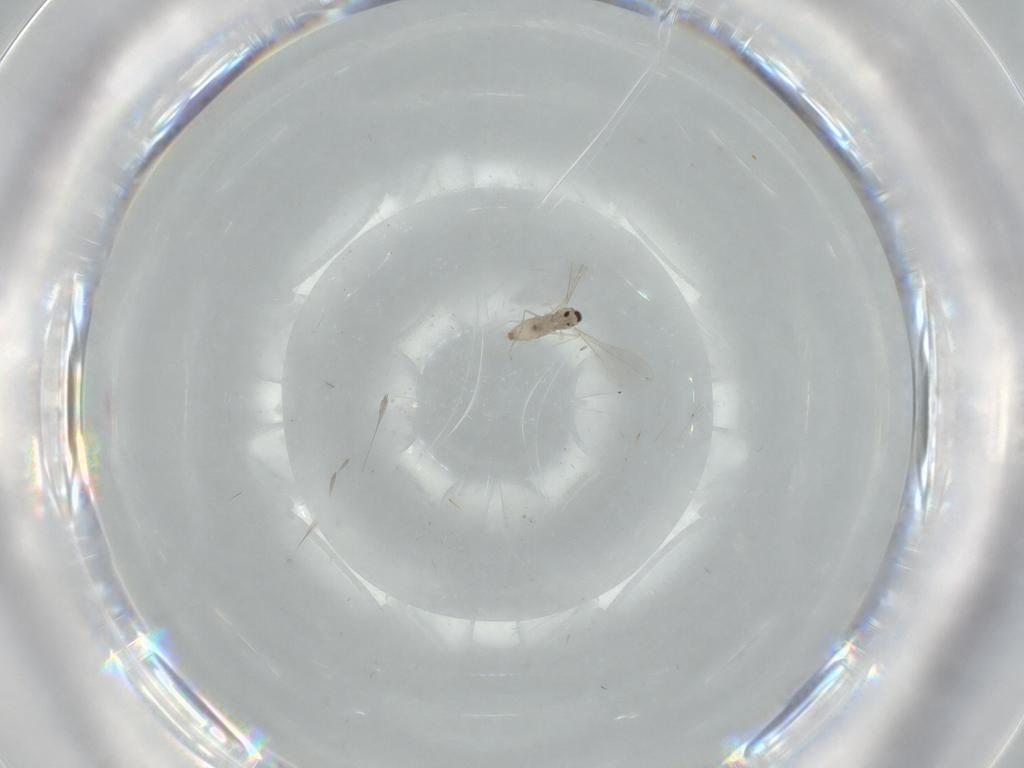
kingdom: Animalia
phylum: Arthropoda
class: Insecta
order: Diptera
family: Cecidomyiidae
